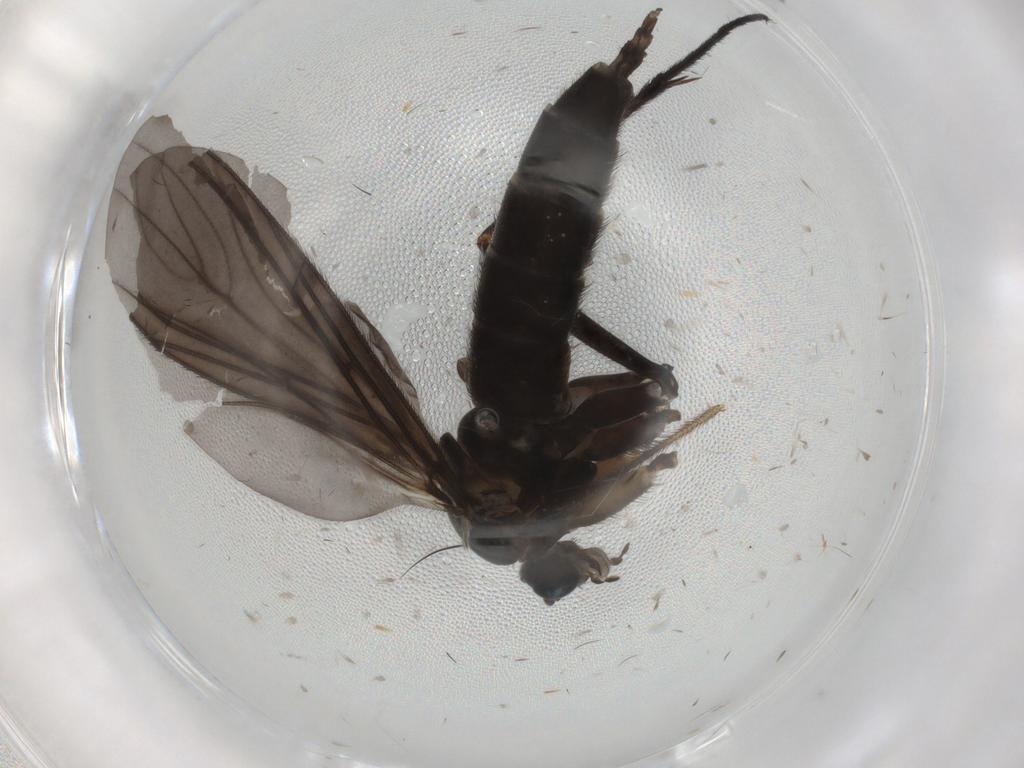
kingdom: Animalia
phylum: Arthropoda
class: Insecta
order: Diptera
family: Sciaridae
